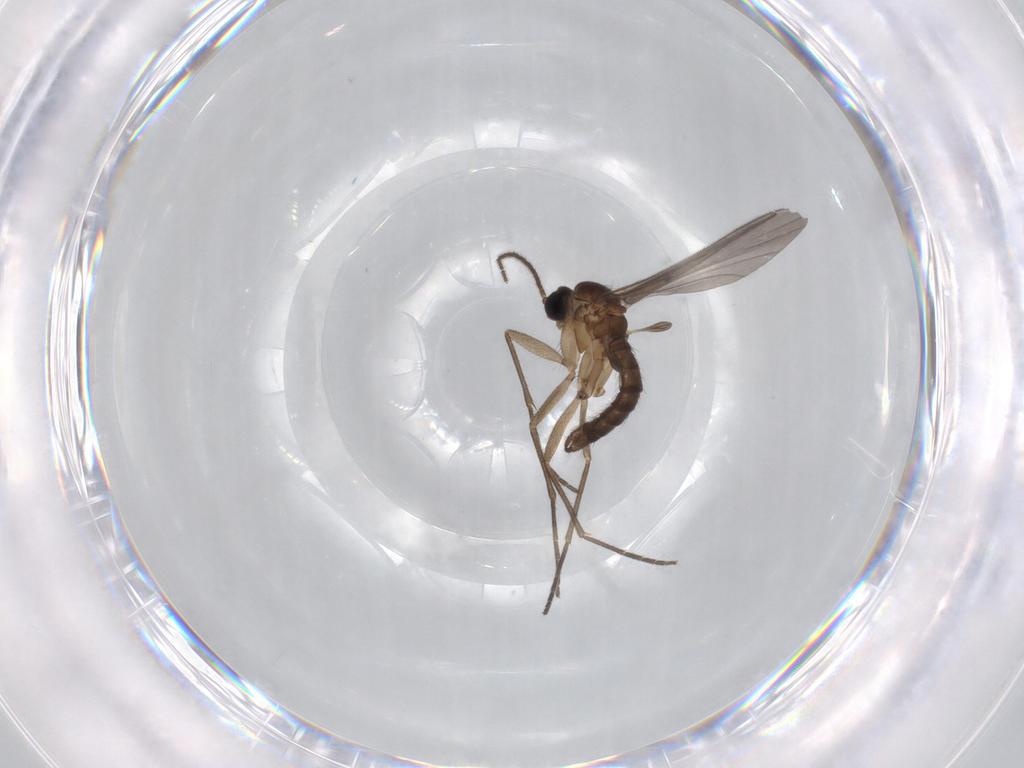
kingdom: Animalia
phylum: Arthropoda
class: Insecta
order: Diptera
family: Sciaridae
